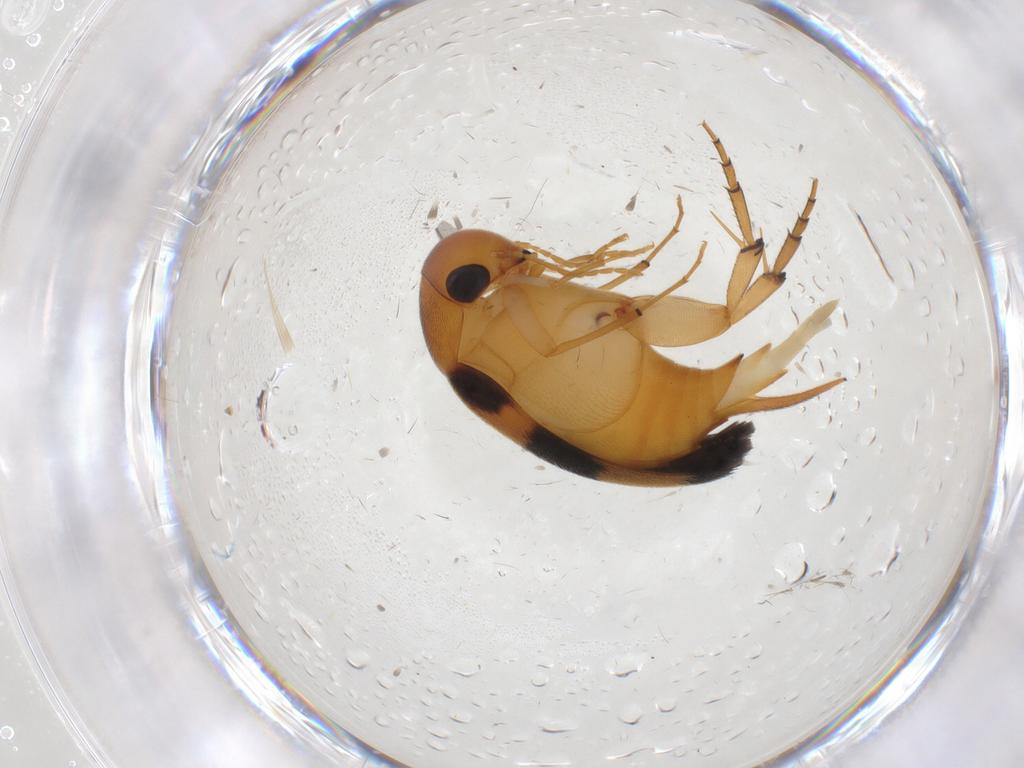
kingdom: Animalia
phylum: Arthropoda
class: Insecta
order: Coleoptera
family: Mordellidae
